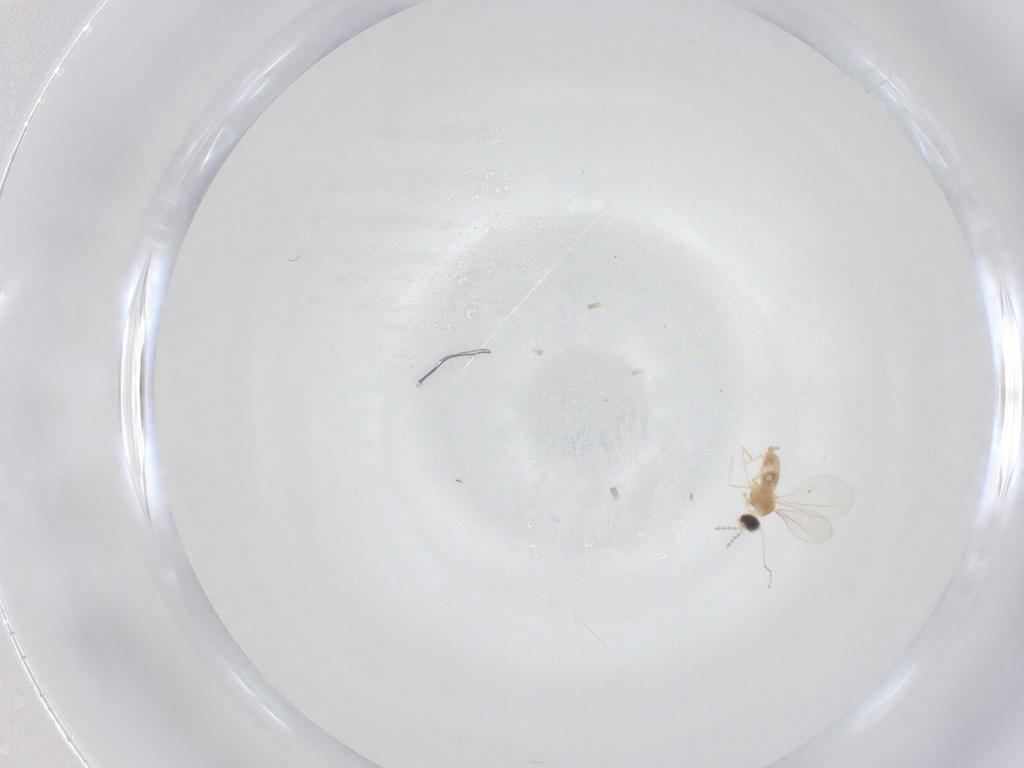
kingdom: Animalia
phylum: Arthropoda
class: Insecta
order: Diptera
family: Cecidomyiidae
